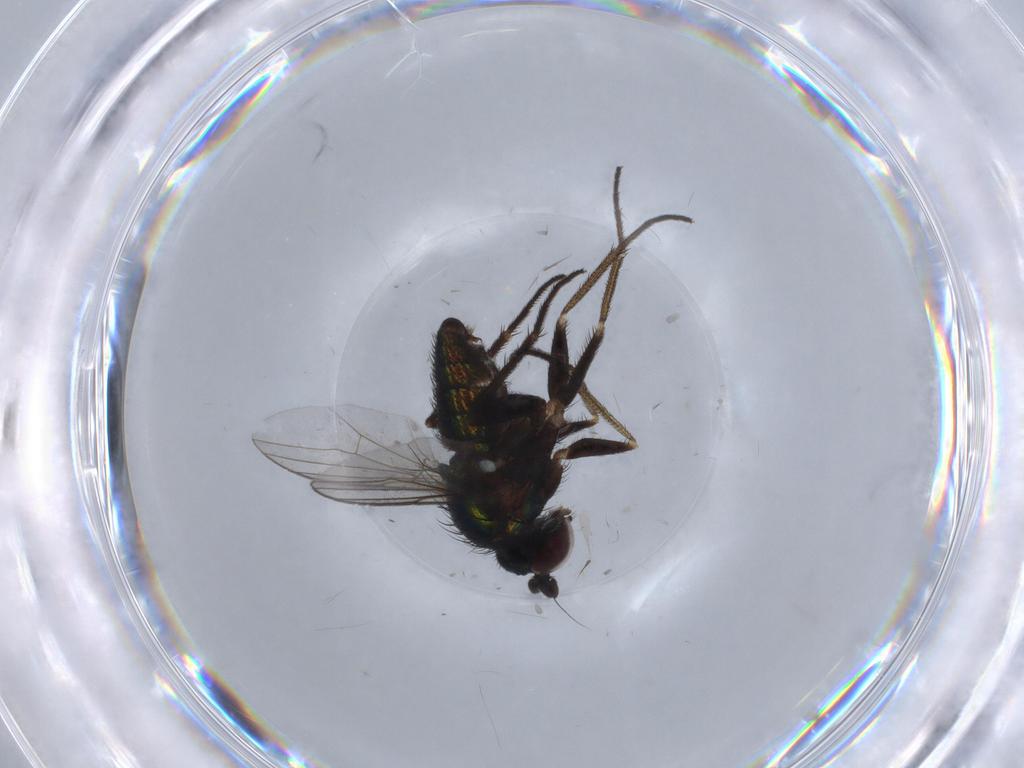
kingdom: Animalia
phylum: Arthropoda
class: Insecta
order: Diptera
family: Dolichopodidae
